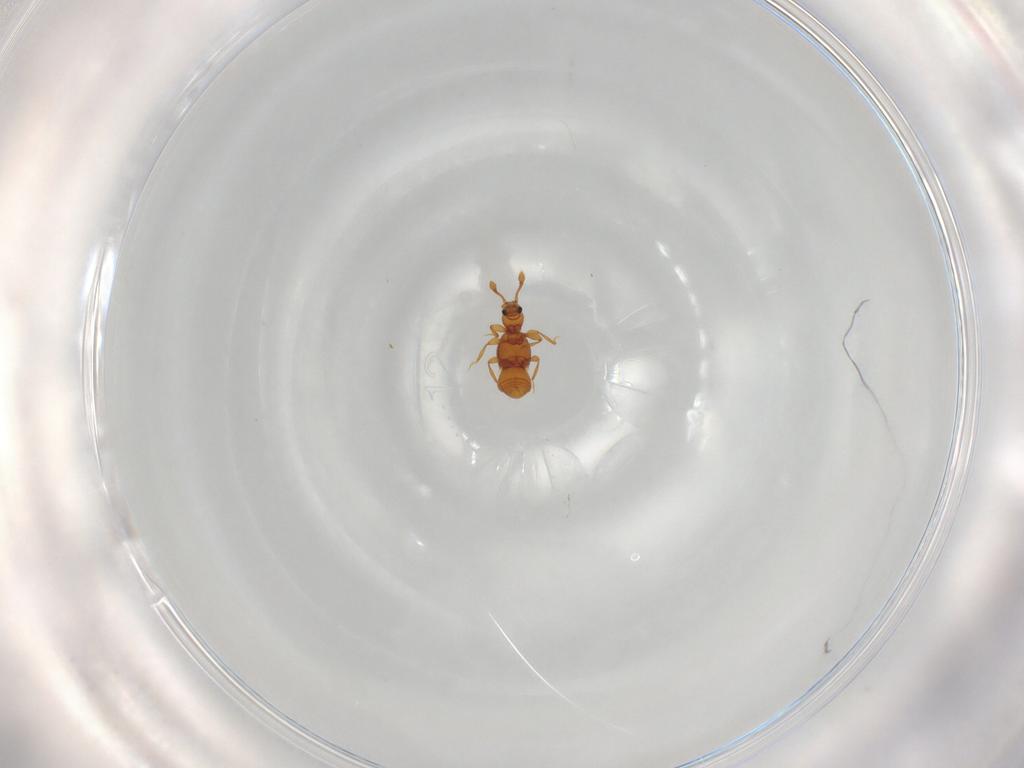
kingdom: Animalia
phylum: Arthropoda
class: Insecta
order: Coleoptera
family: Staphylinidae
